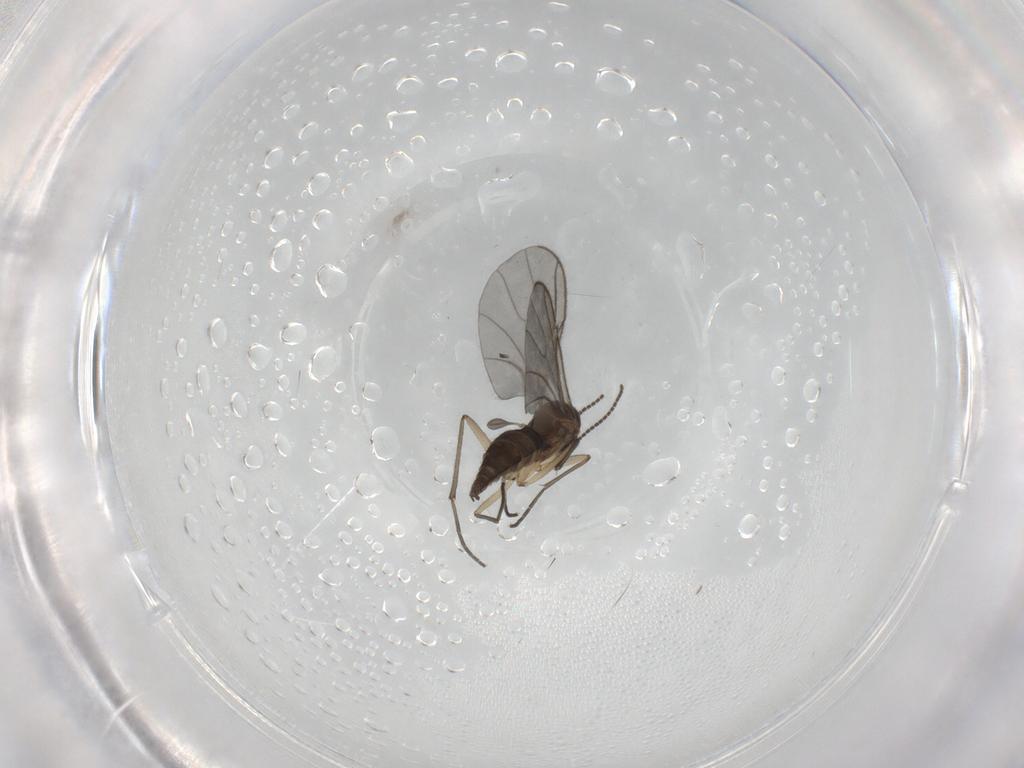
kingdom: Animalia
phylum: Arthropoda
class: Insecta
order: Diptera
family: Sciaridae
